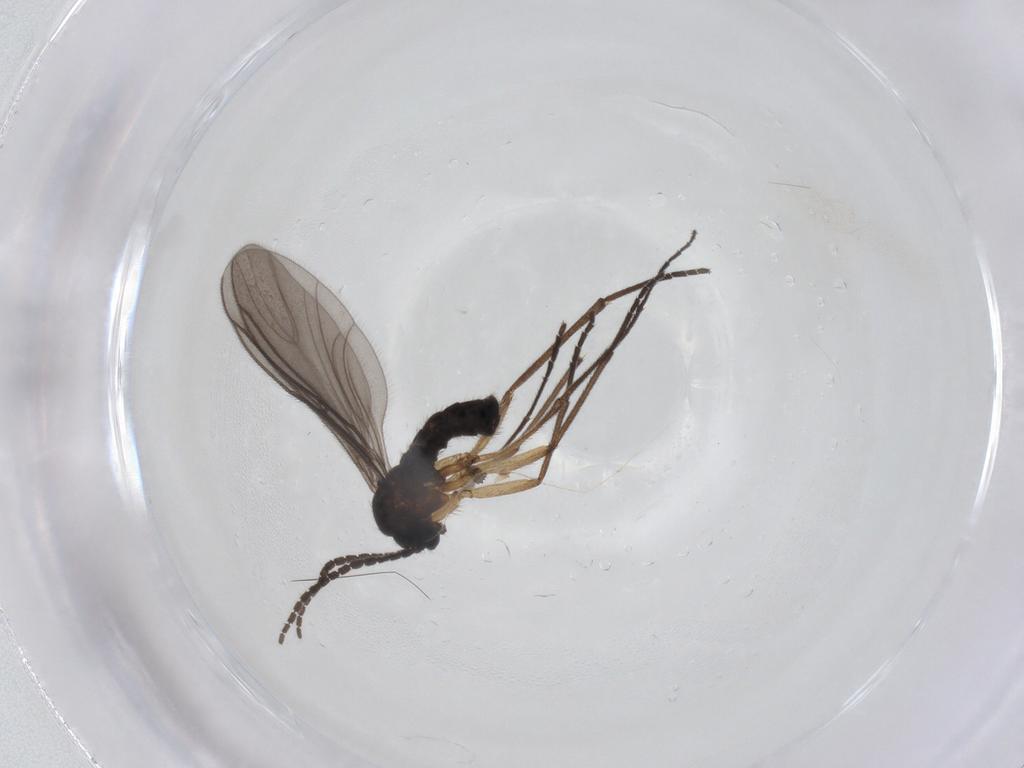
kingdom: Animalia
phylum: Arthropoda
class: Insecta
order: Diptera
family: Sciaridae
